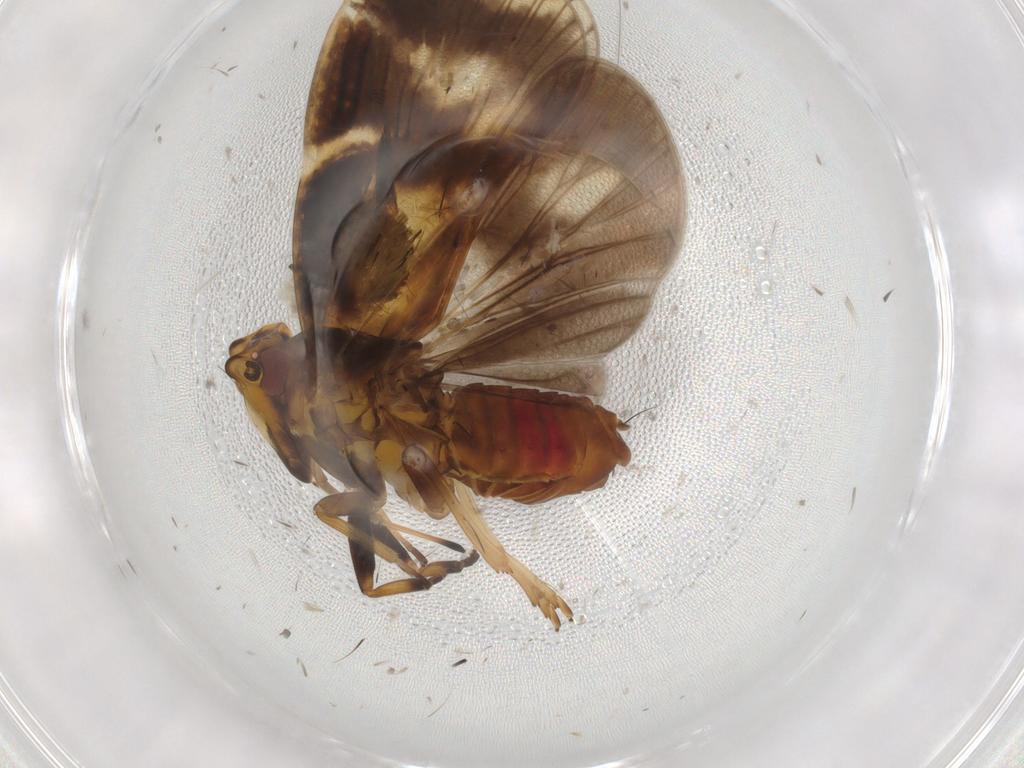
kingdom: Animalia
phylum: Arthropoda
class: Insecta
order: Hemiptera
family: Cixiidae
